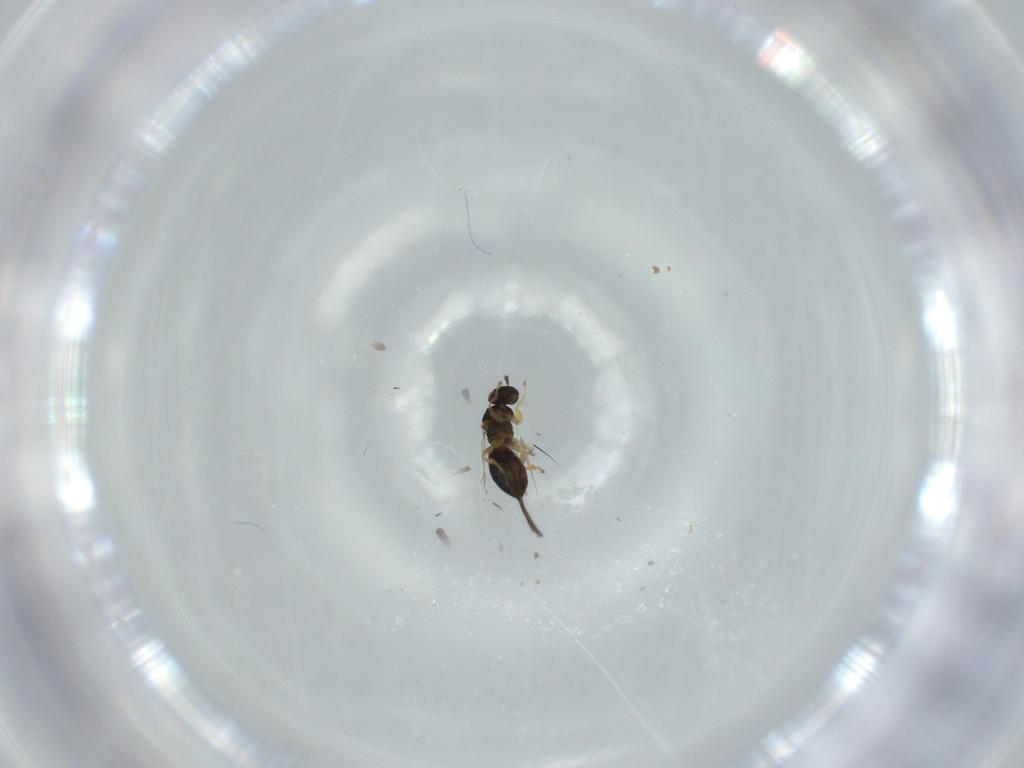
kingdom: Animalia
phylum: Arthropoda
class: Insecta
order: Hymenoptera
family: Agaonidae
